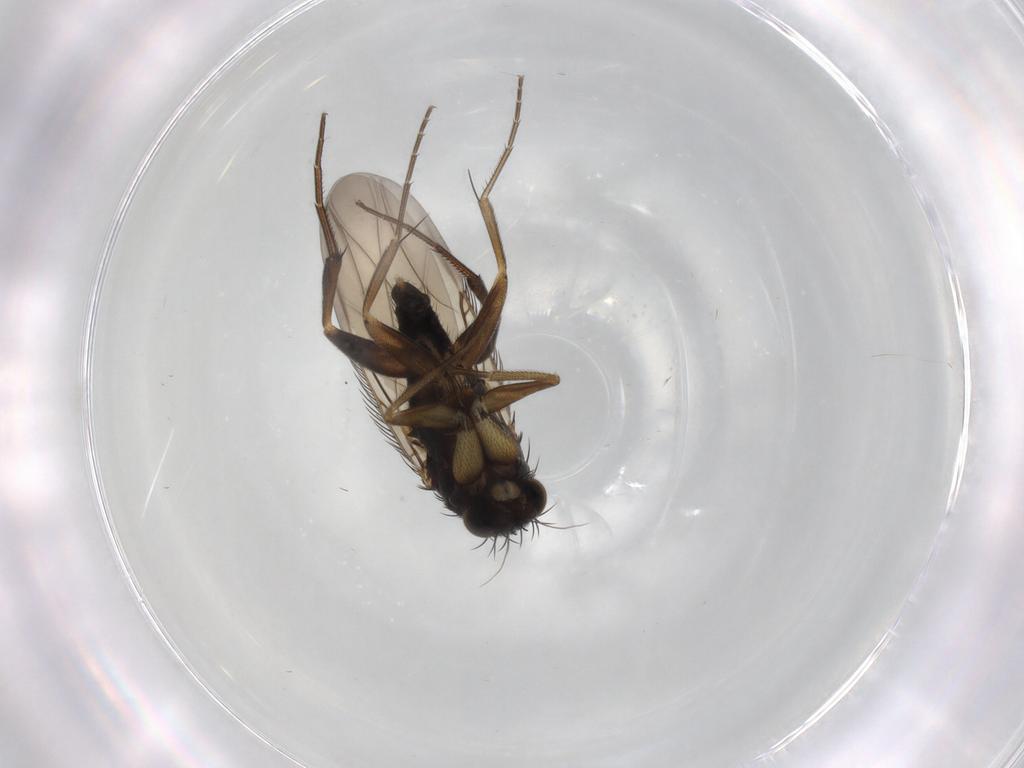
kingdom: Animalia
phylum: Arthropoda
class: Insecta
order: Diptera
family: Phoridae
